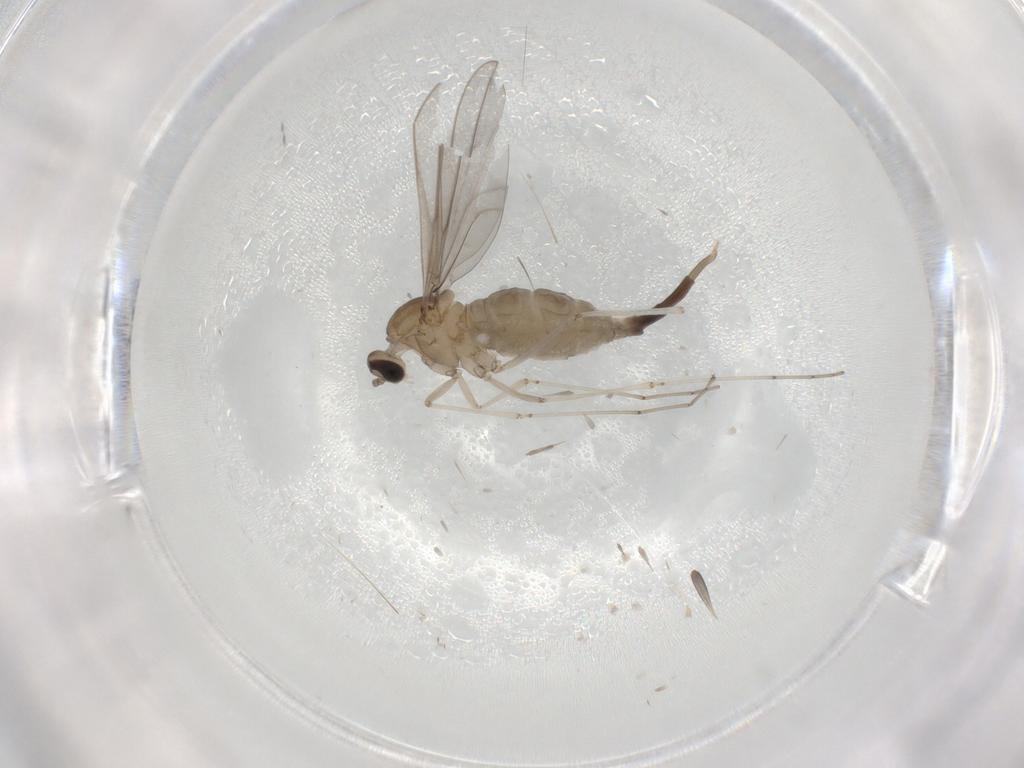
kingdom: Animalia
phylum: Arthropoda
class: Insecta
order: Diptera
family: Cecidomyiidae
